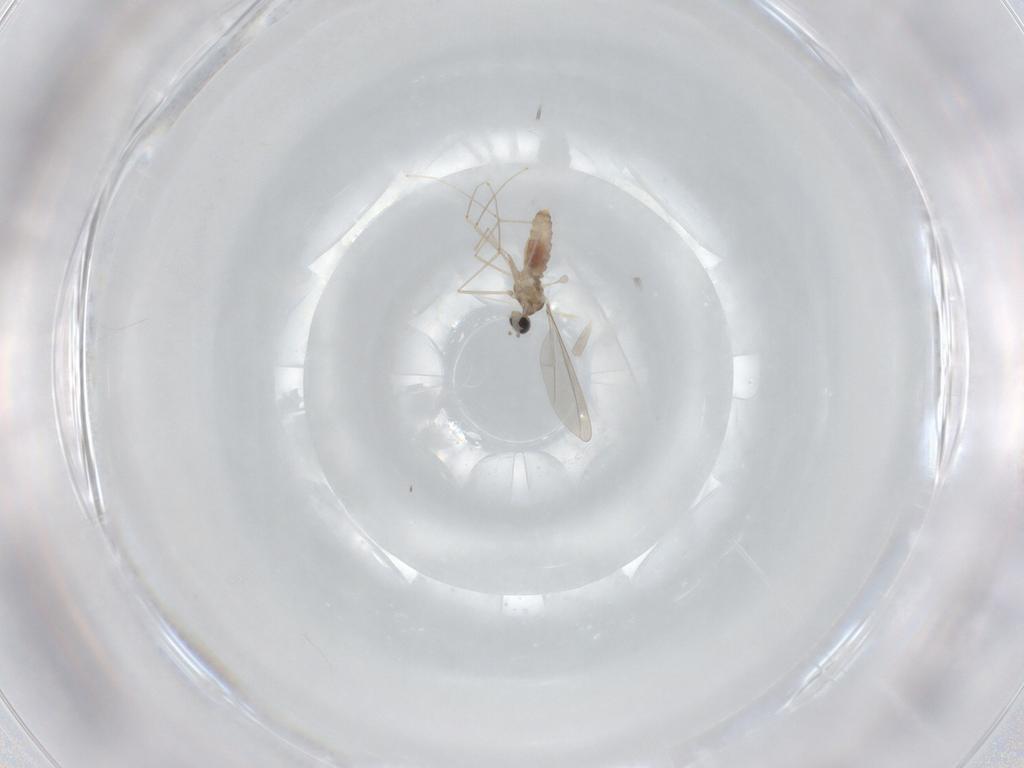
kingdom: Animalia
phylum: Arthropoda
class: Insecta
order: Diptera
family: Cecidomyiidae
